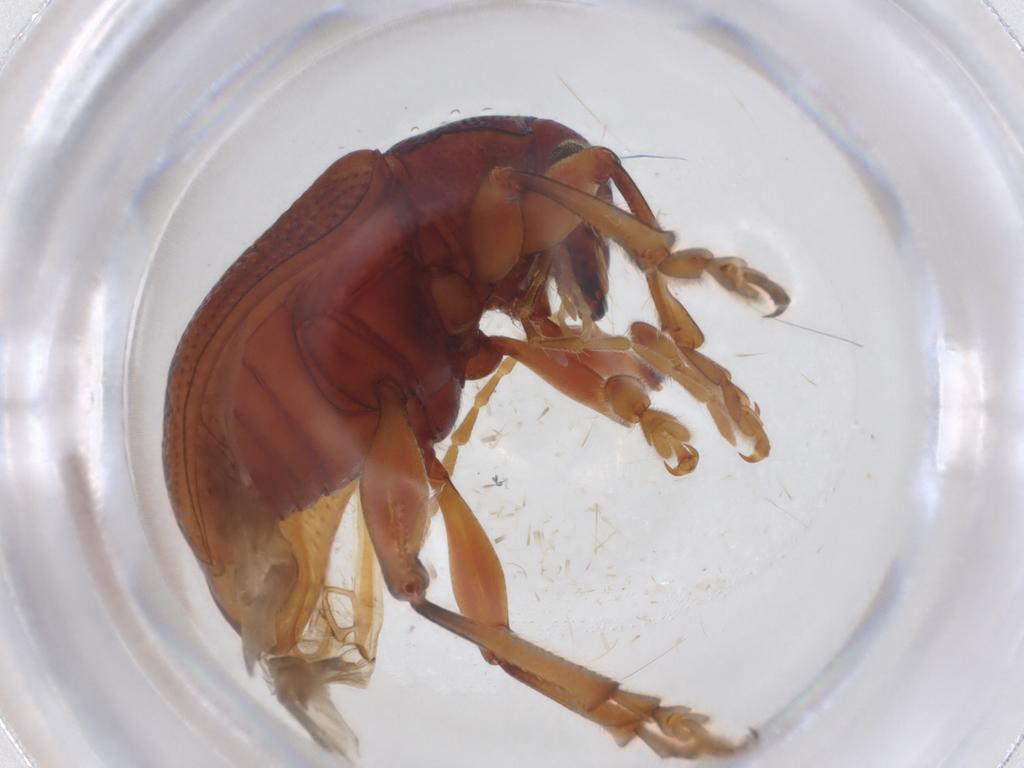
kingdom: Animalia
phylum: Arthropoda
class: Insecta
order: Coleoptera
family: Chrysomelidae
